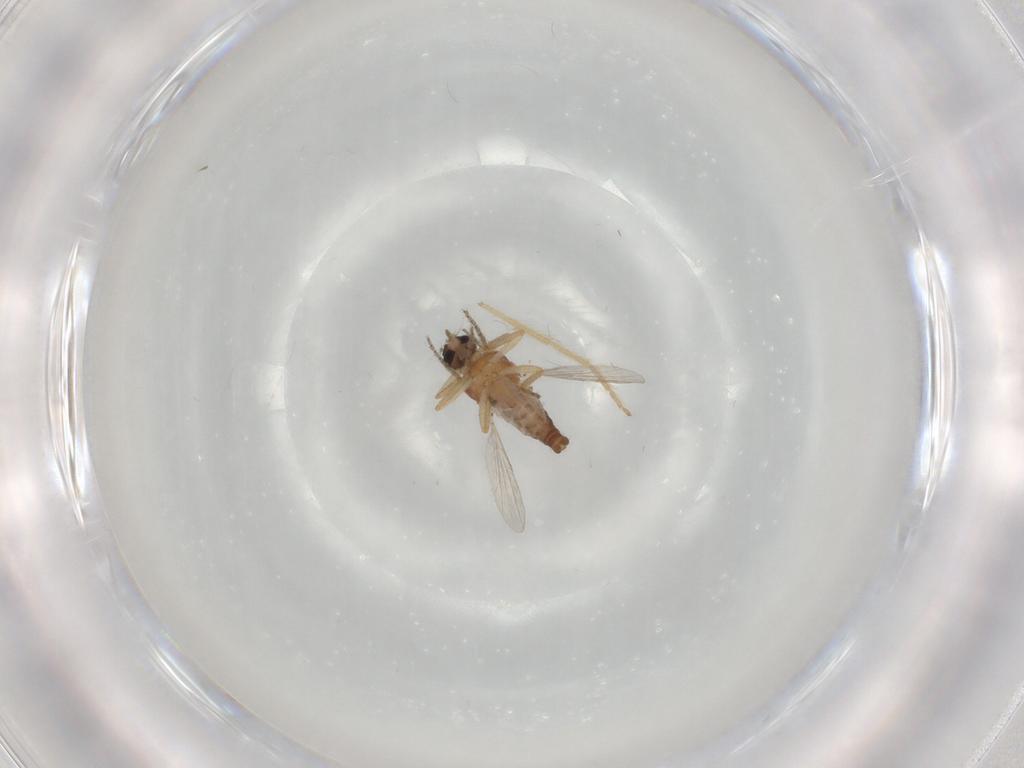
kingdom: Animalia
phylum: Arthropoda
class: Insecta
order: Diptera
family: Ceratopogonidae
